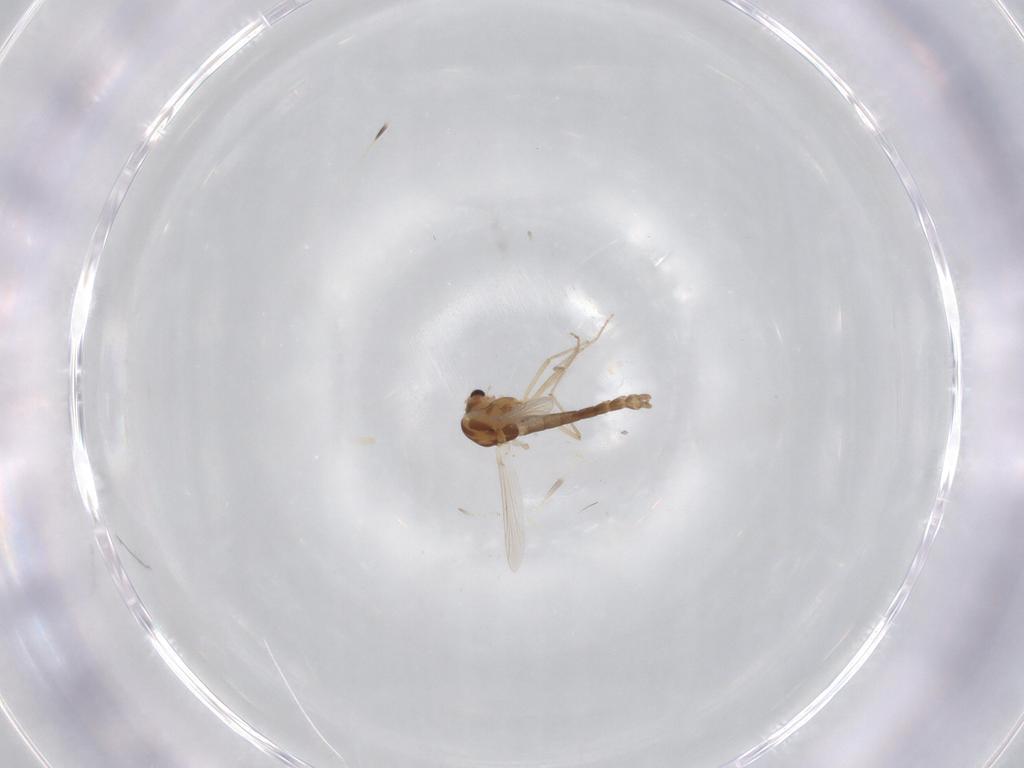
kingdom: Animalia
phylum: Arthropoda
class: Insecta
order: Diptera
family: Chironomidae
